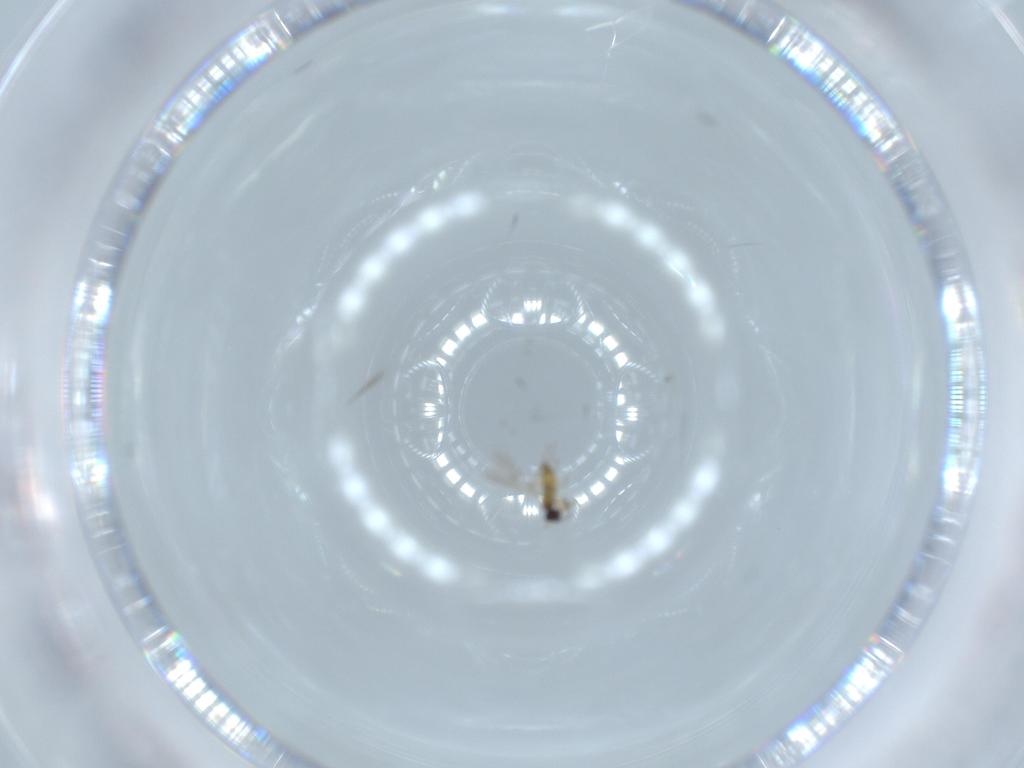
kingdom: Animalia
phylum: Arthropoda
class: Insecta
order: Hymenoptera
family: Mymaridae
